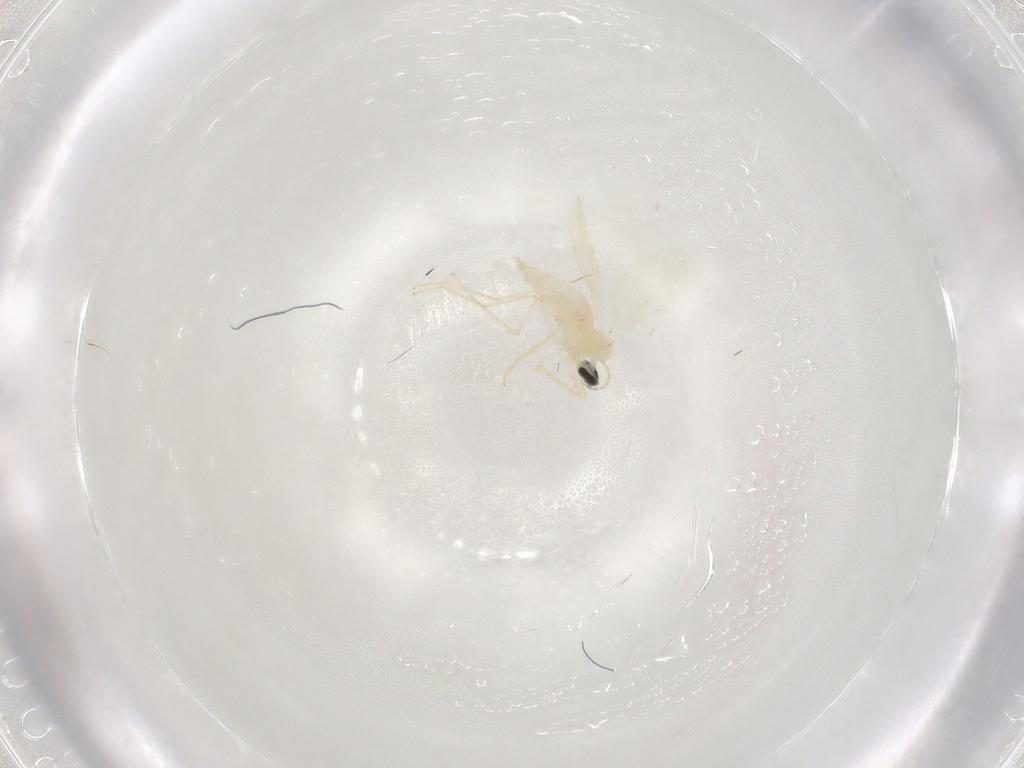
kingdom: Animalia
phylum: Arthropoda
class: Insecta
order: Diptera
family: Cecidomyiidae
